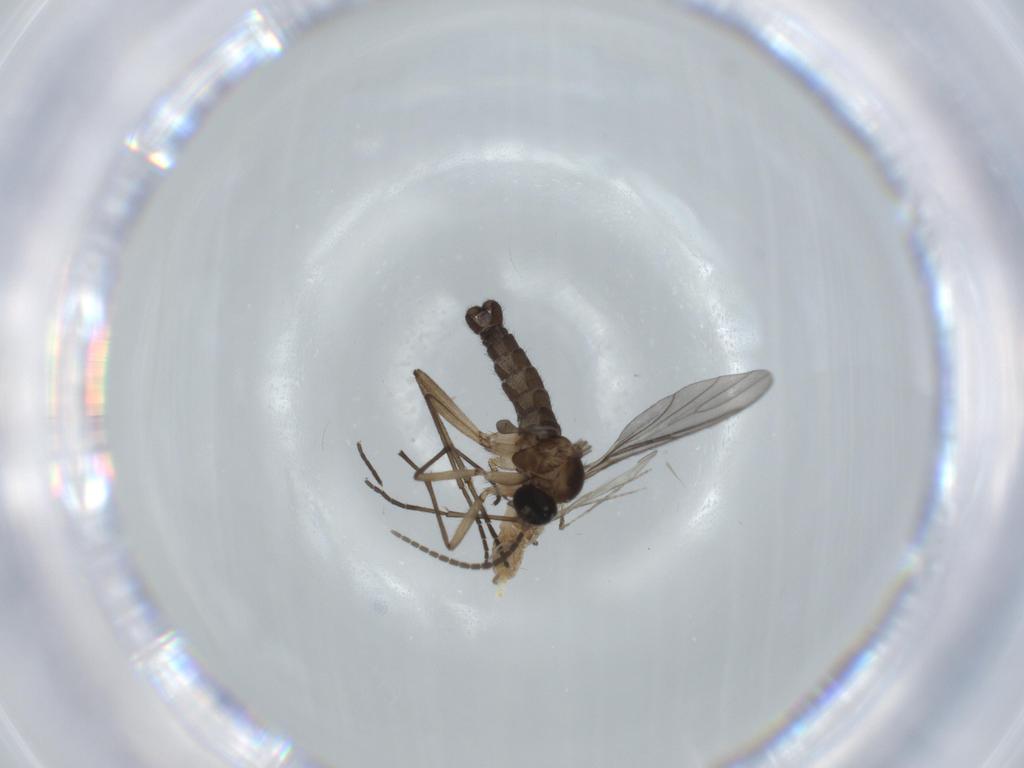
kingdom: Animalia
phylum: Arthropoda
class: Insecta
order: Diptera
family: Cecidomyiidae
